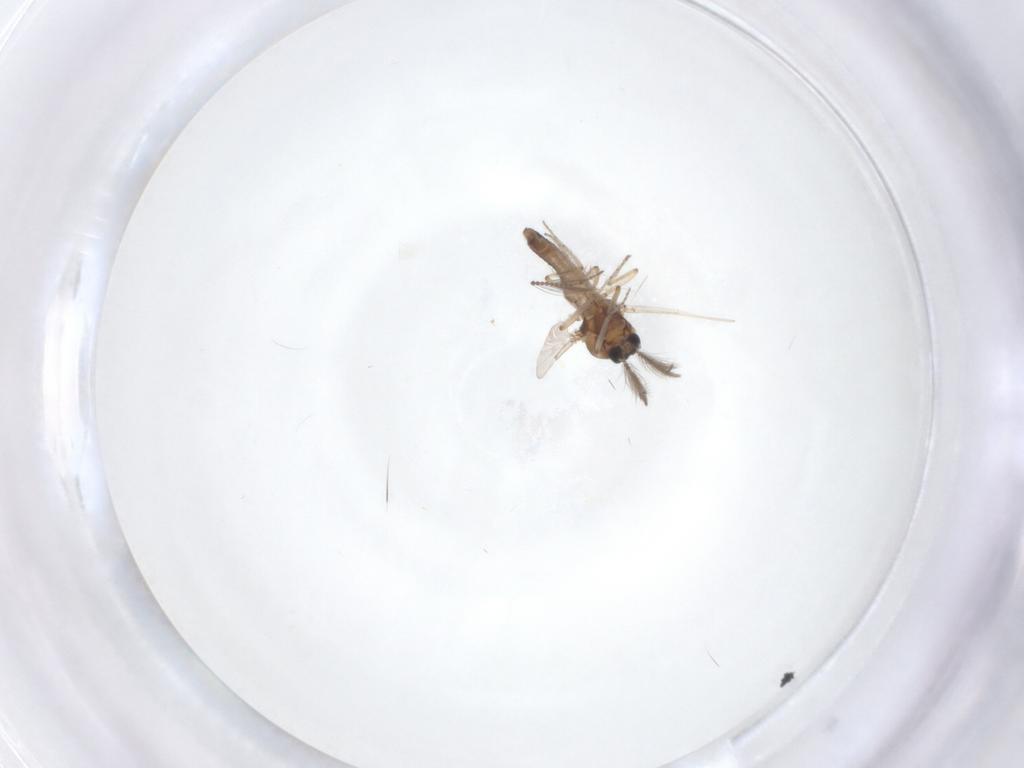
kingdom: Animalia
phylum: Arthropoda
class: Insecta
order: Diptera
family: Ceratopogonidae
